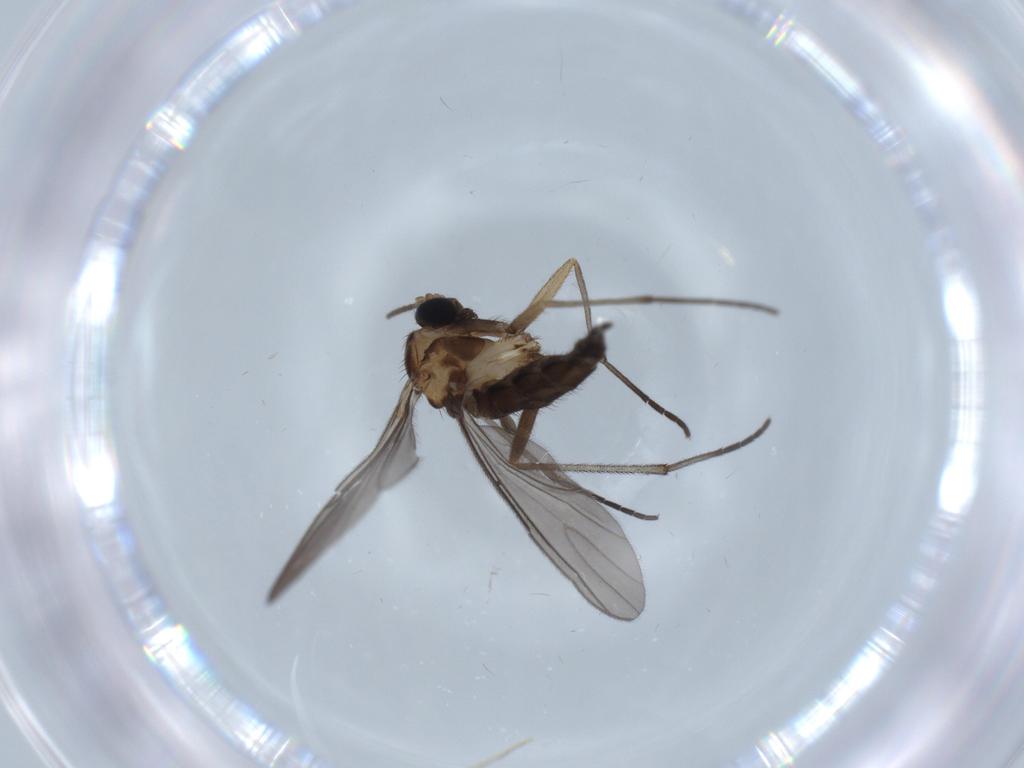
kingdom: Animalia
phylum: Arthropoda
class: Insecta
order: Diptera
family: Sciaridae
